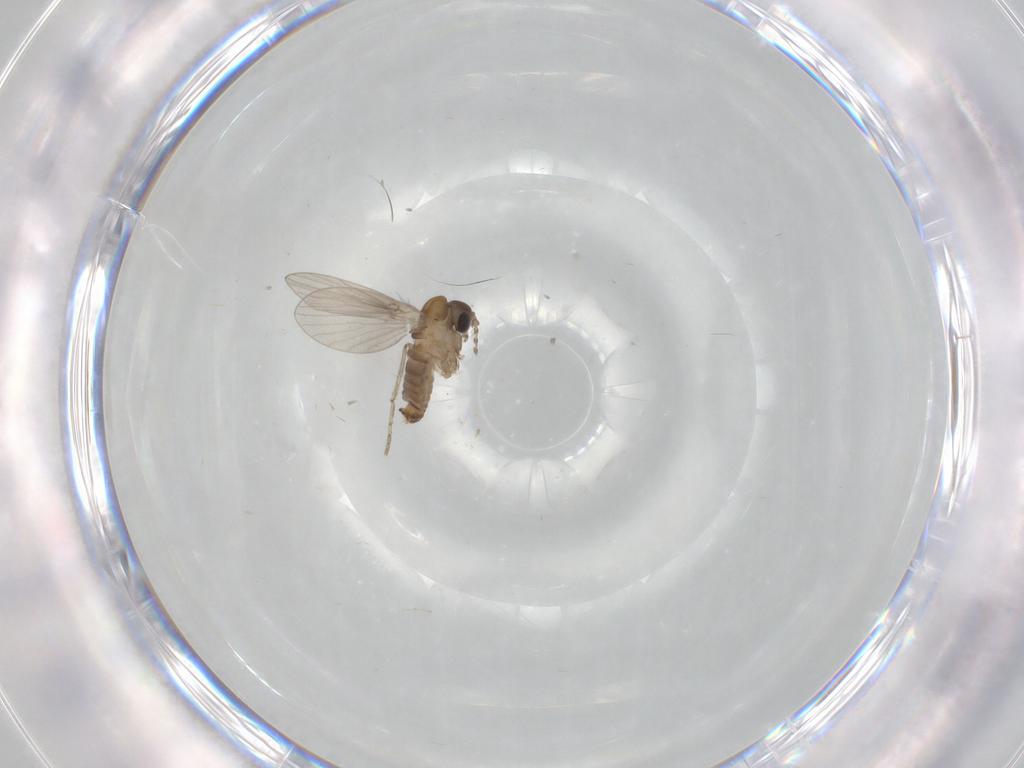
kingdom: Animalia
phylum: Arthropoda
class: Insecta
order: Diptera
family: Psychodidae
